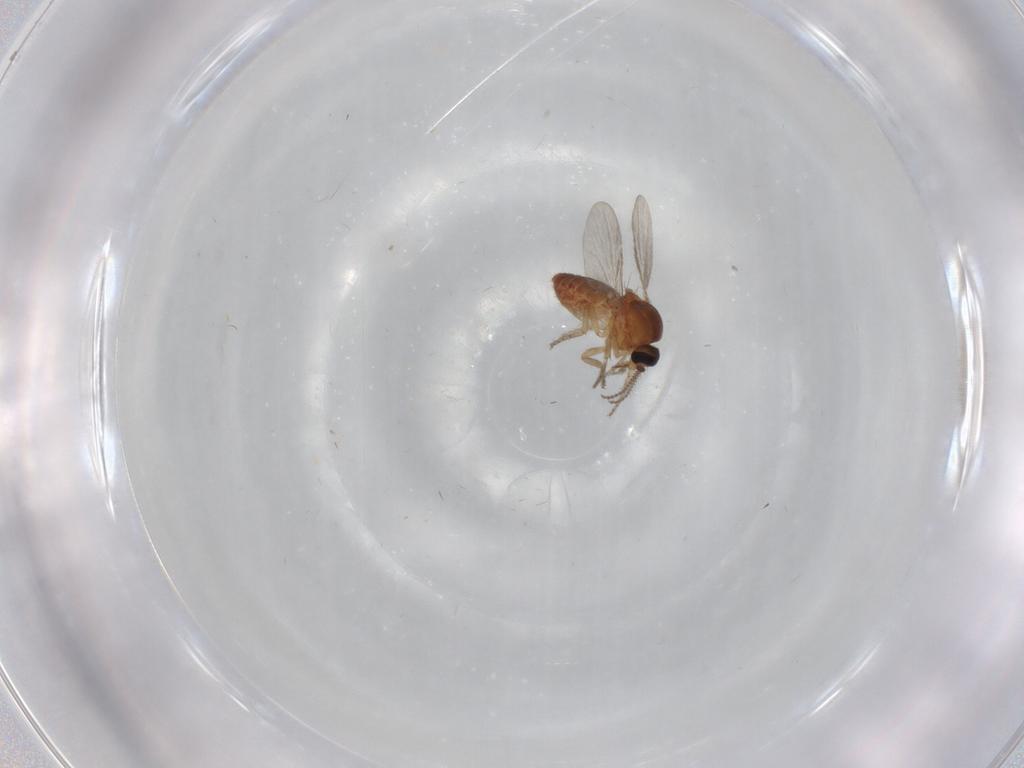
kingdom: Animalia
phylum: Arthropoda
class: Insecta
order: Diptera
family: Ceratopogonidae
